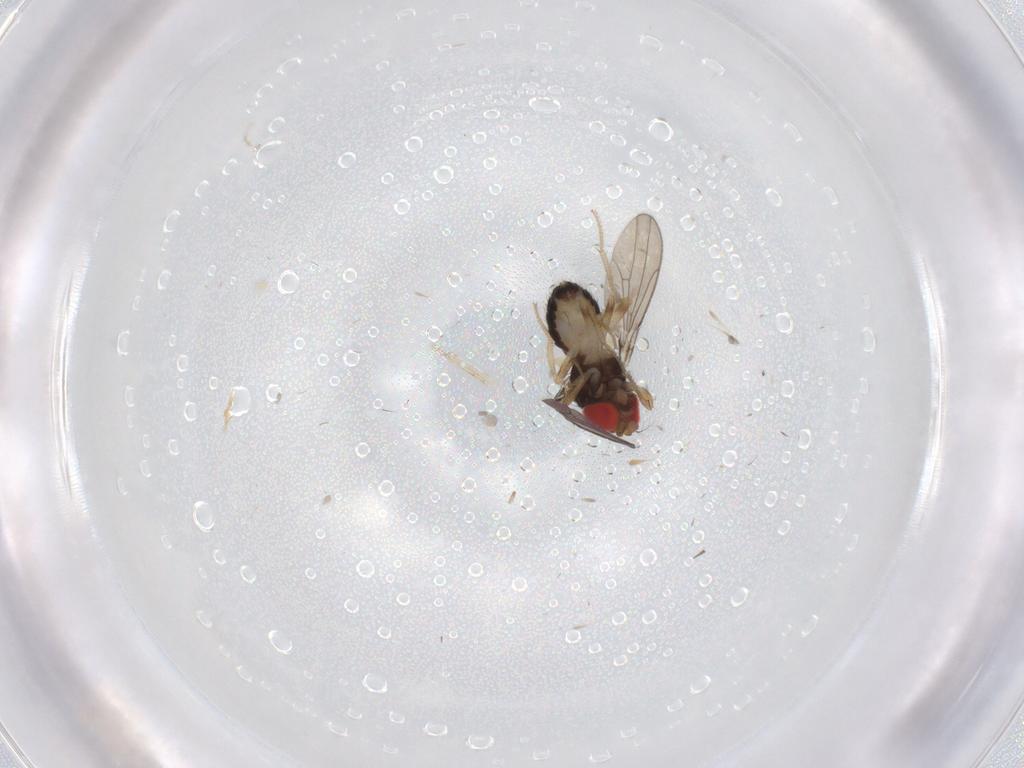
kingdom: Animalia
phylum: Arthropoda
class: Insecta
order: Diptera
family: Drosophilidae
